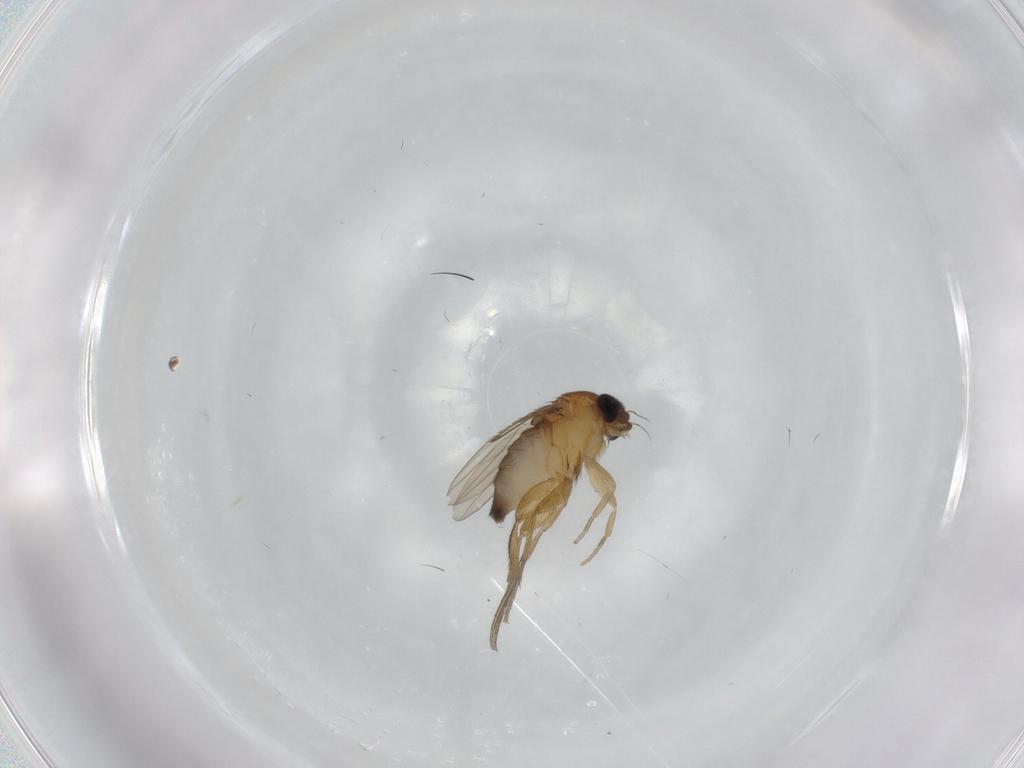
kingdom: Animalia
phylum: Arthropoda
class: Insecta
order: Diptera
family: Phoridae
